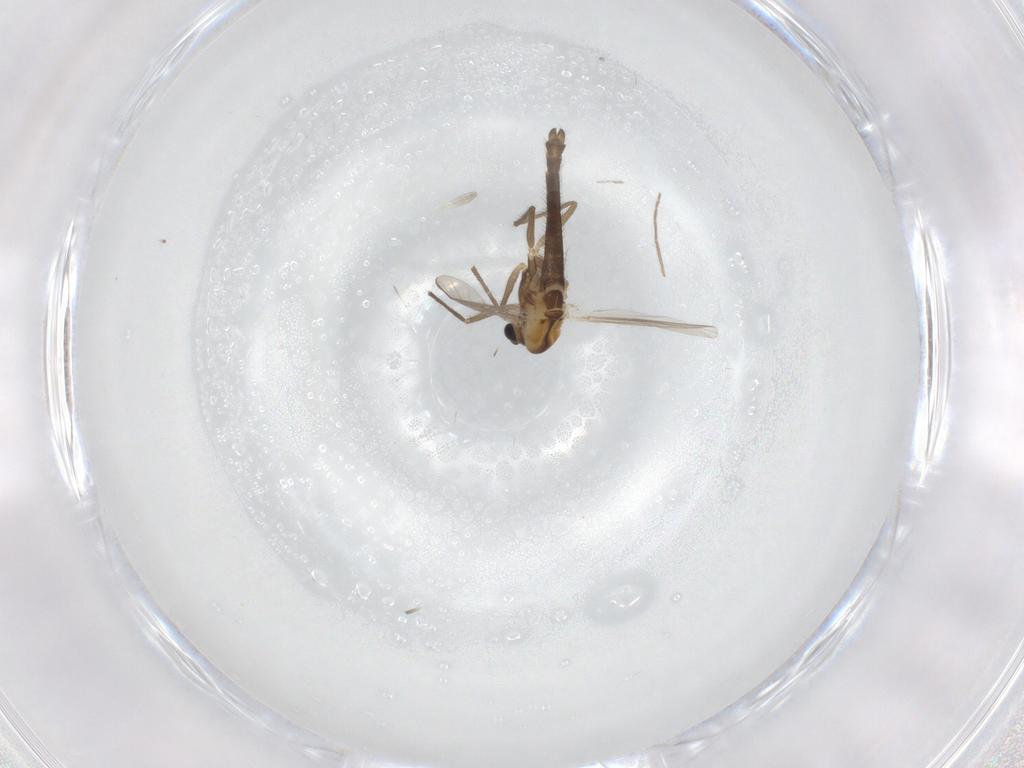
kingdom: Animalia
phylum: Arthropoda
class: Insecta
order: Diptera
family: Chironomidae
